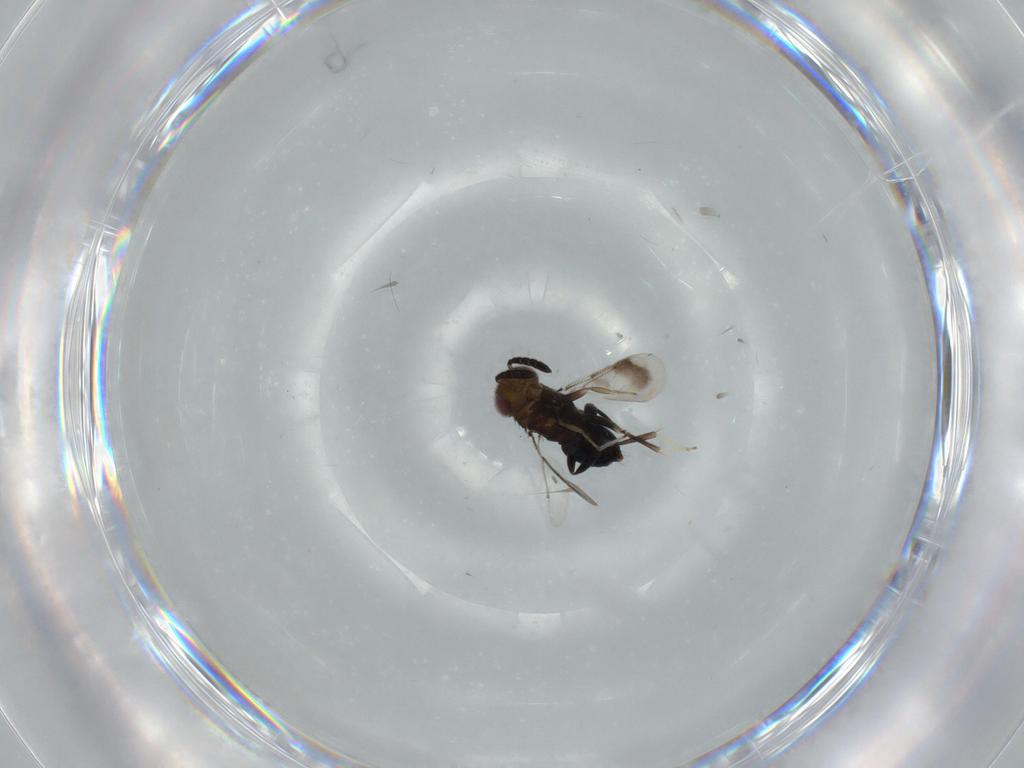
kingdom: Animalia
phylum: Arthropoda
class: Insecta
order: Hymenoptera
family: Aphelinidae
